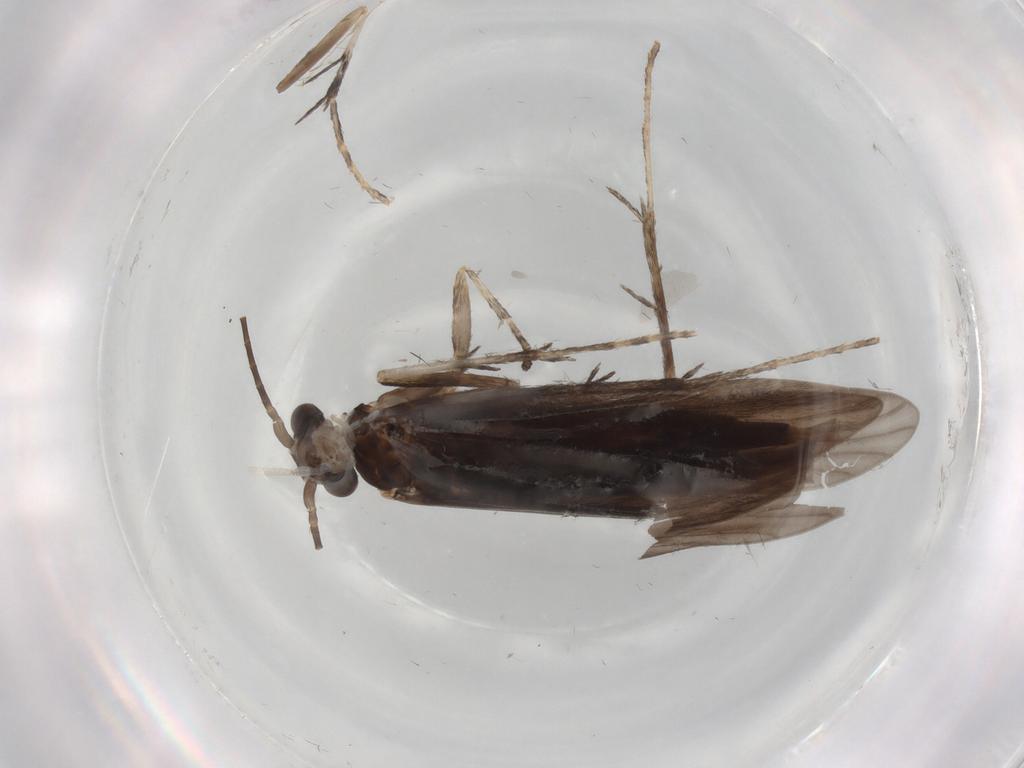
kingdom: Animalia
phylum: Arthropoda
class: Insecta
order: Trichoptera
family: Xiphocentronidae
